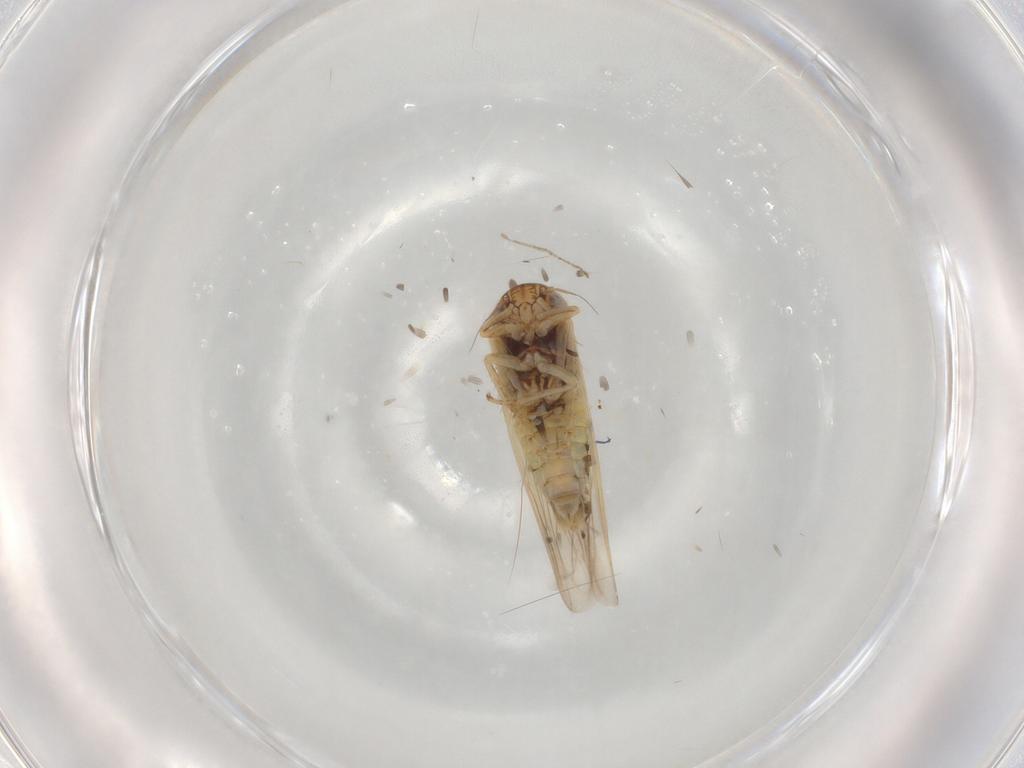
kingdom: Animalia
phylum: Arthropoda
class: Insecta
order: Hemiptera
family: Cicadellidae
